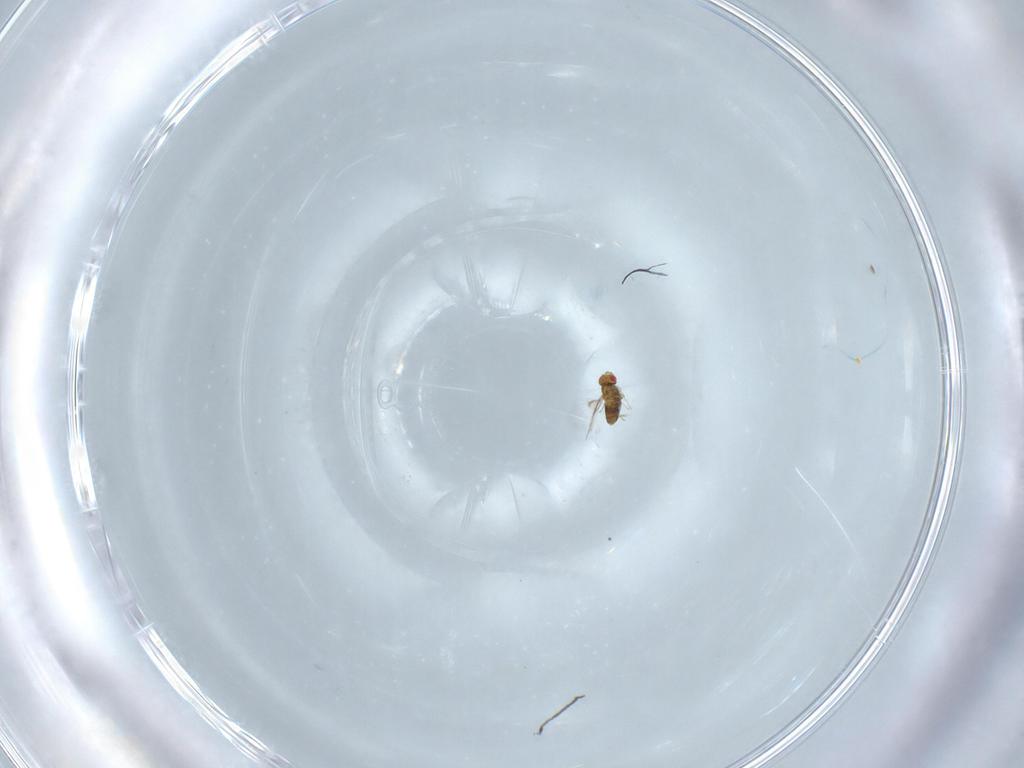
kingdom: Animalia
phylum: Arthropoda
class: Insecta
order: Hymenoptera
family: Trichogrammatidae
